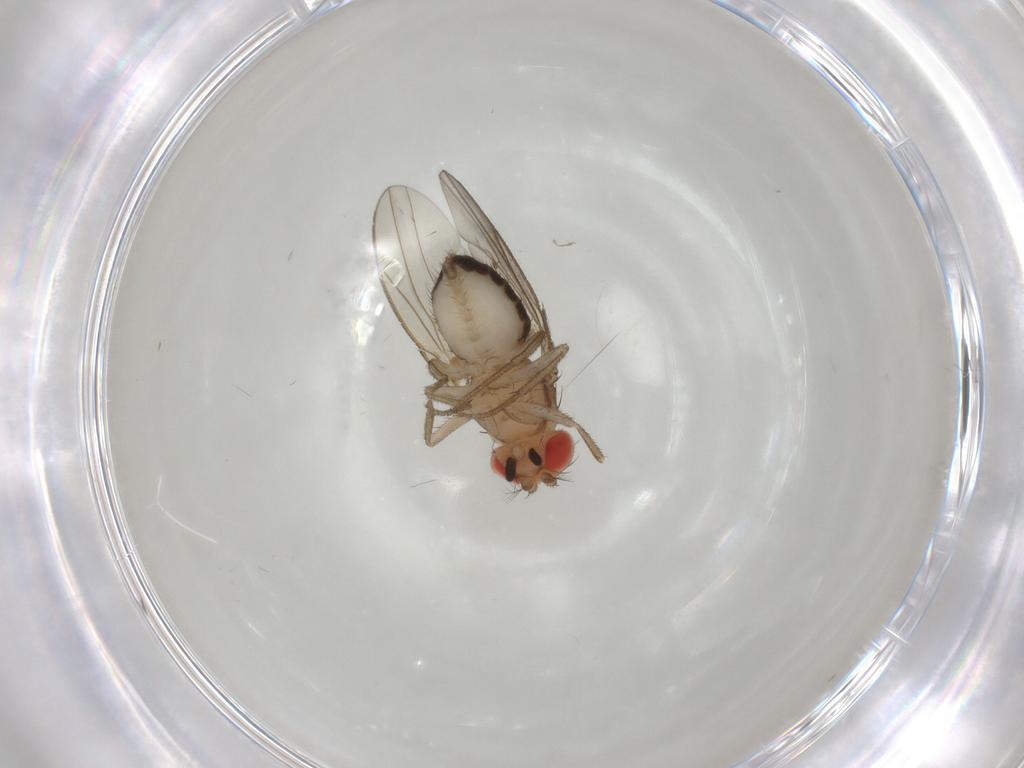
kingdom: Animalia
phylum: Arthropoda
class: Insecta
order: Diptera
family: Drosophilidae
